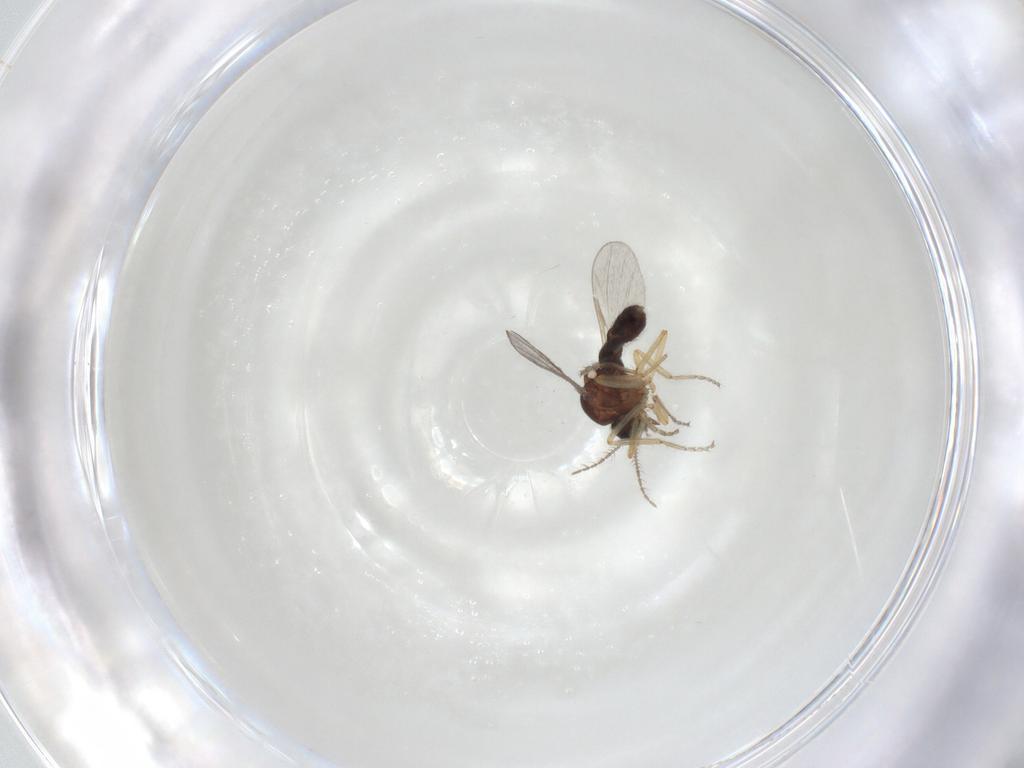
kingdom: Animalia
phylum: Arthropoda
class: Insecta
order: Diptera
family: Ceratopogonidae
